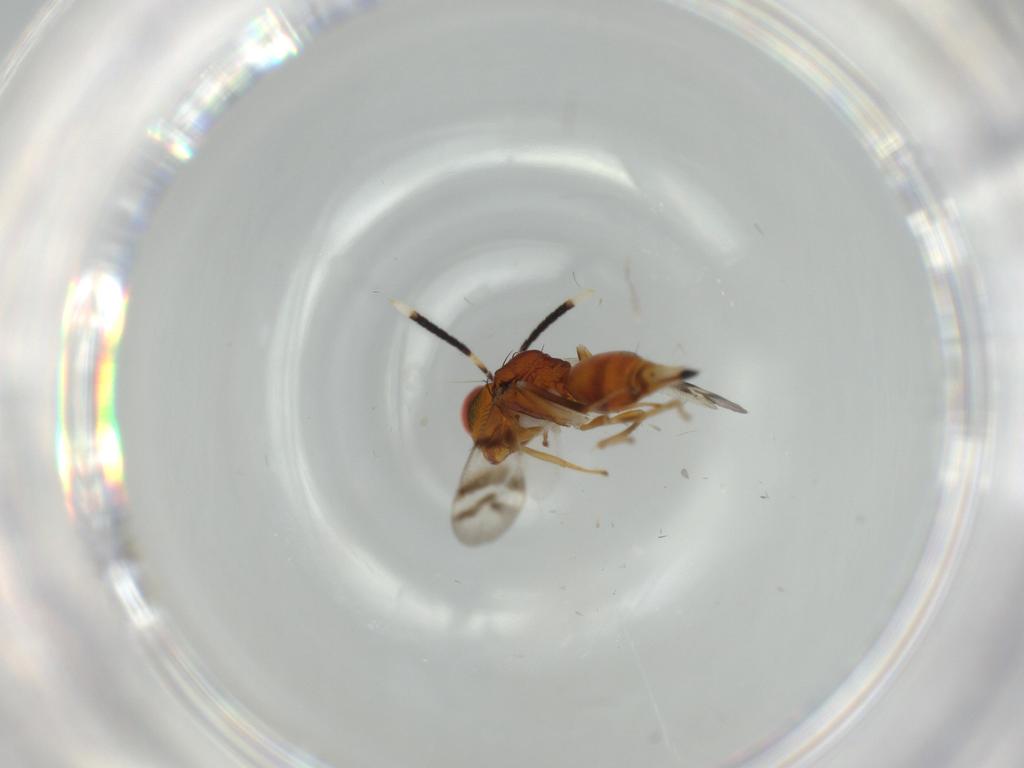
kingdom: Animalia
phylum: Arthropoda
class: Insecta
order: Hymenoptera
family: Diparidae
